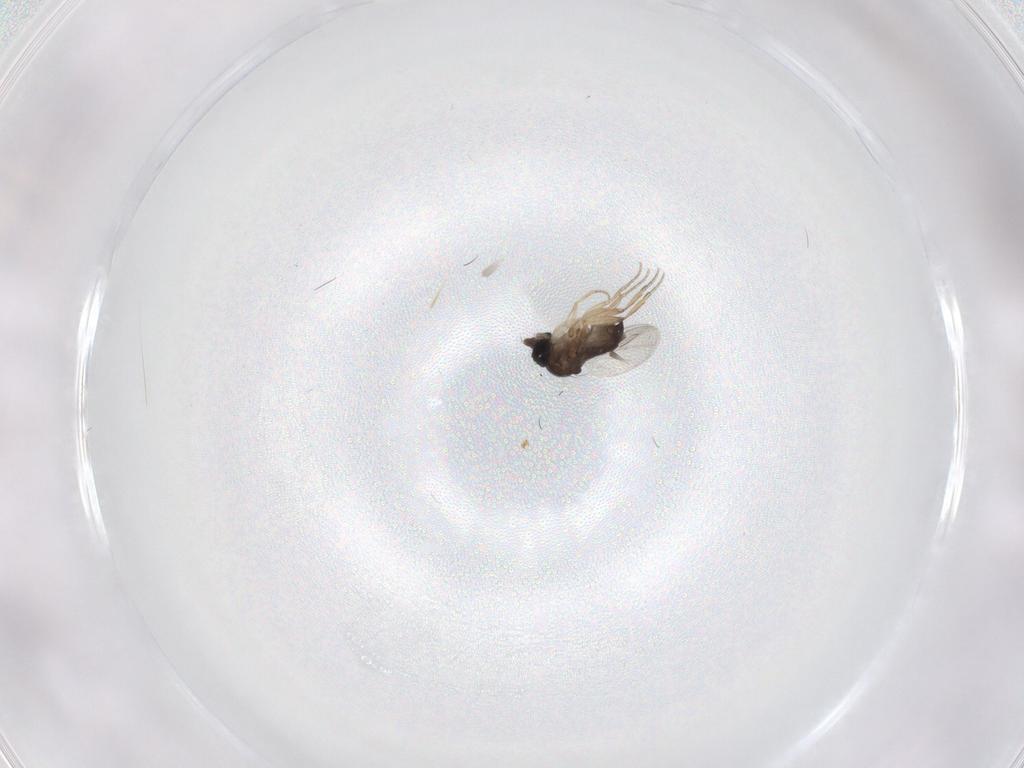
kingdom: Animalia
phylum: Arthropoda
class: Insecta
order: Diptera
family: Phoridae
